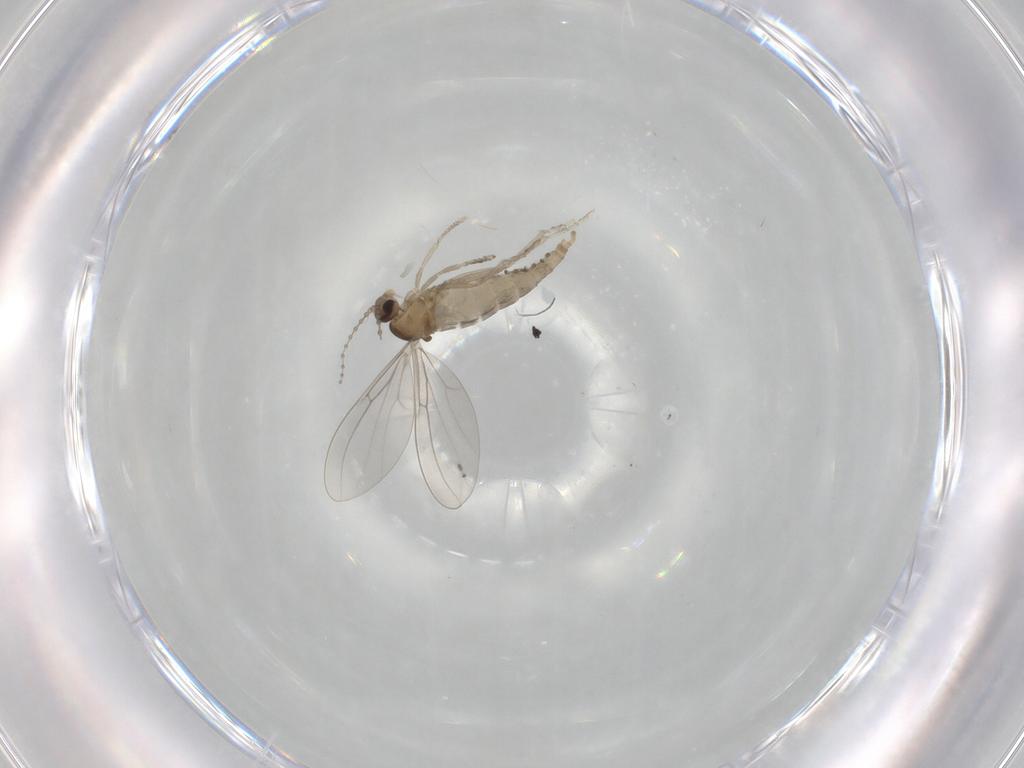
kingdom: Animalia
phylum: Arthropoda
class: Insecta
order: Diptera
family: Cecidomyiidae
